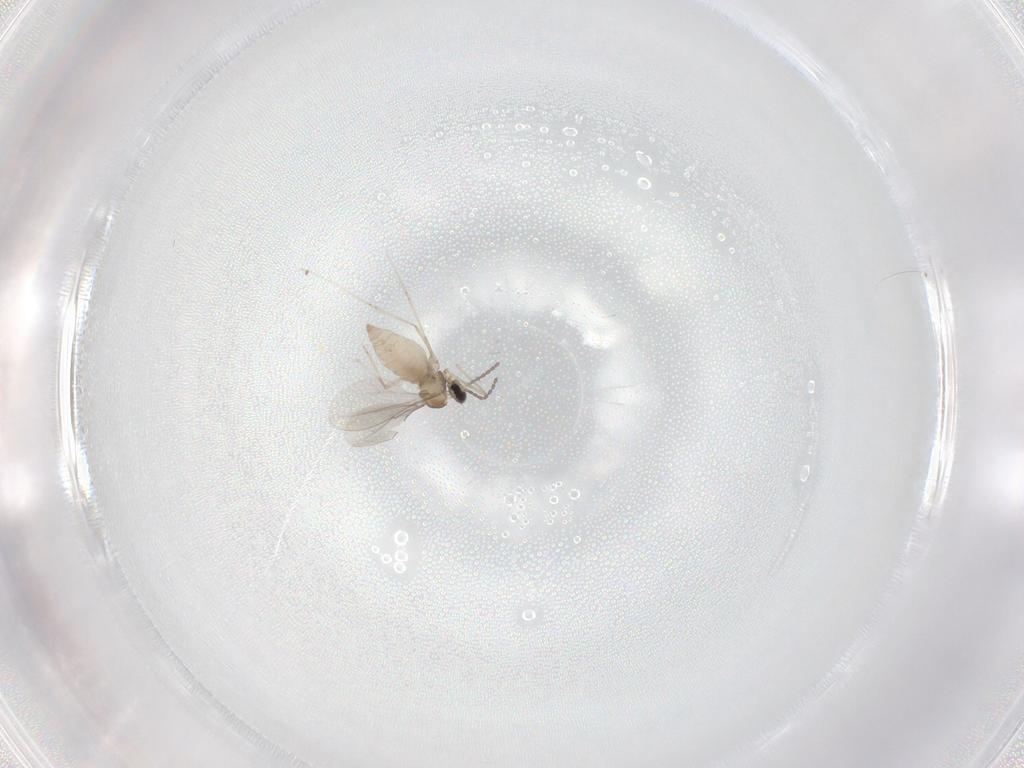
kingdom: Animalia
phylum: Arthropoda
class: Insecta
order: Diptera
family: Cecidomyiidae
